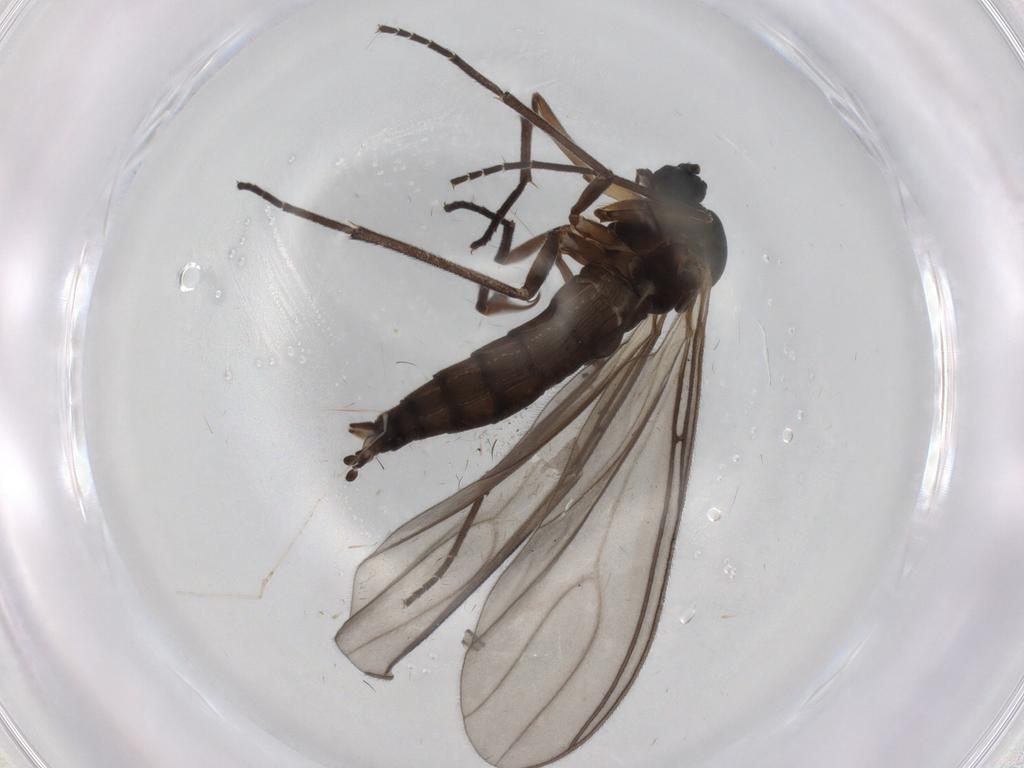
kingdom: Animalia
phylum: Arthropoda
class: Insecta
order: Diptera
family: Sciaridae
